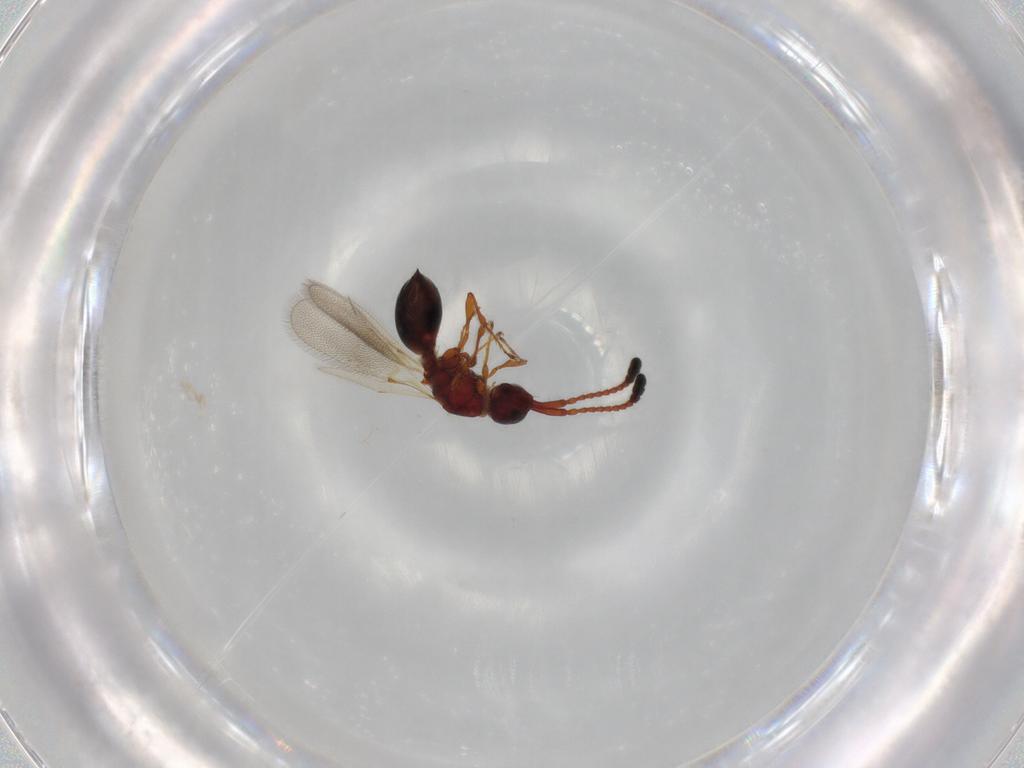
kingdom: Animalia
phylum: Arthropoda
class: Insecta
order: Hymenoptera
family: Diapriidae
